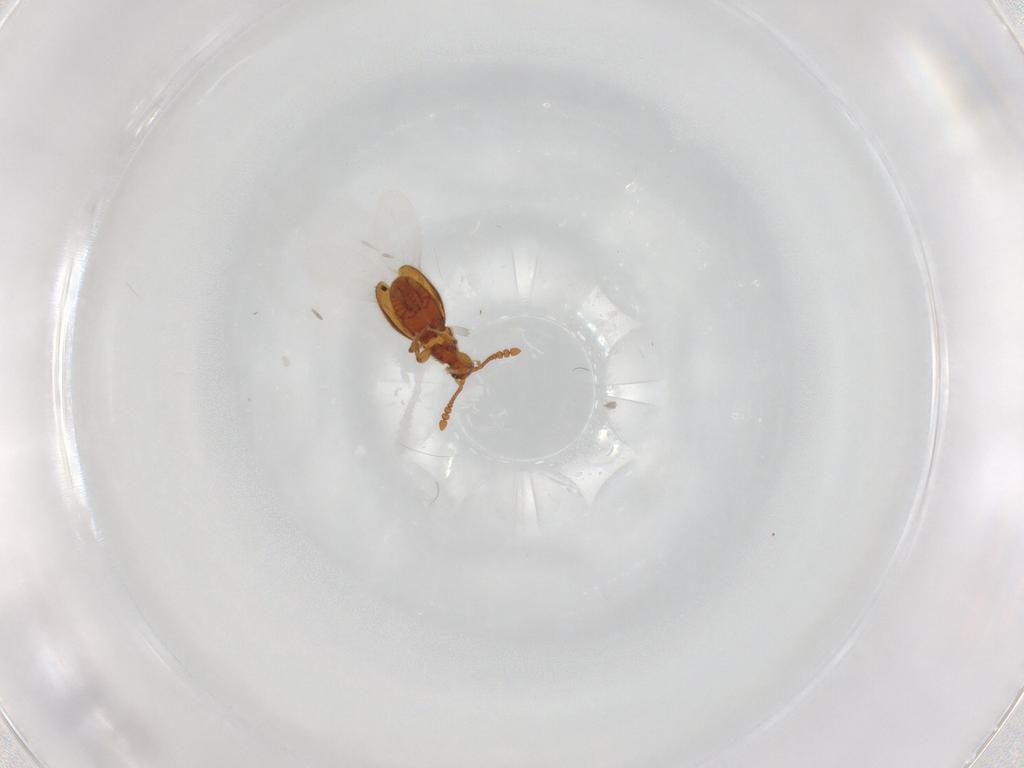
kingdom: Animalia
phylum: Arthropoda
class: Insecta
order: Coleoptera
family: Staphylinidae
